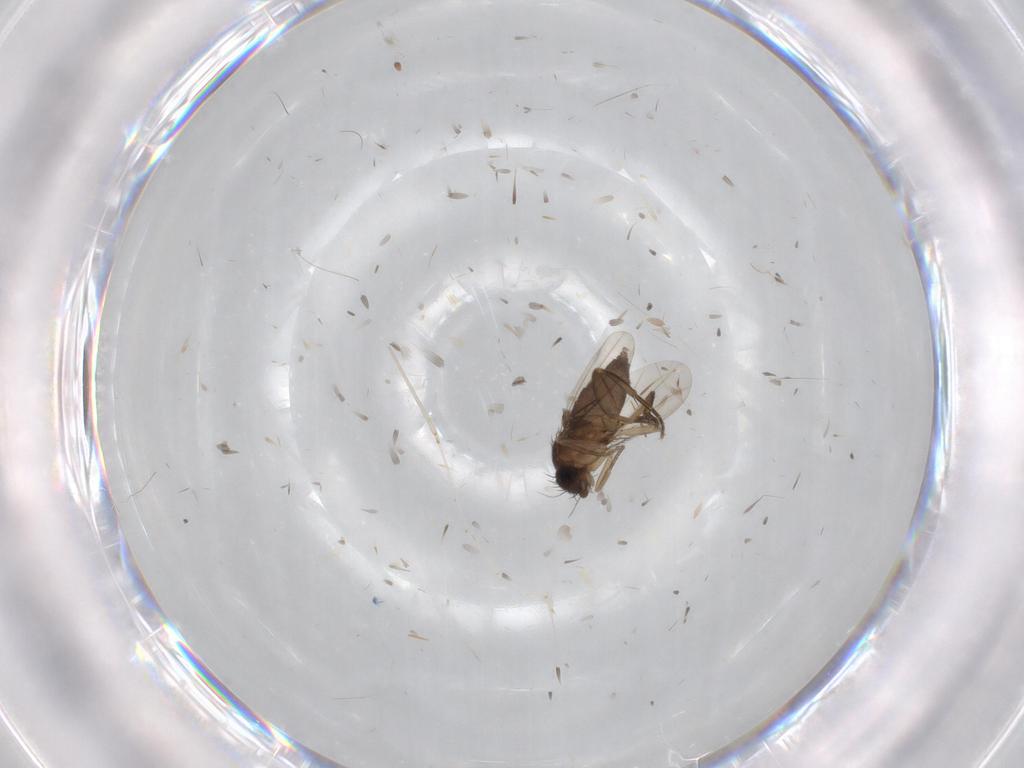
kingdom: Animalia
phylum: Arthropoda
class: Insecta
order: Diptera
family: Phoridae
